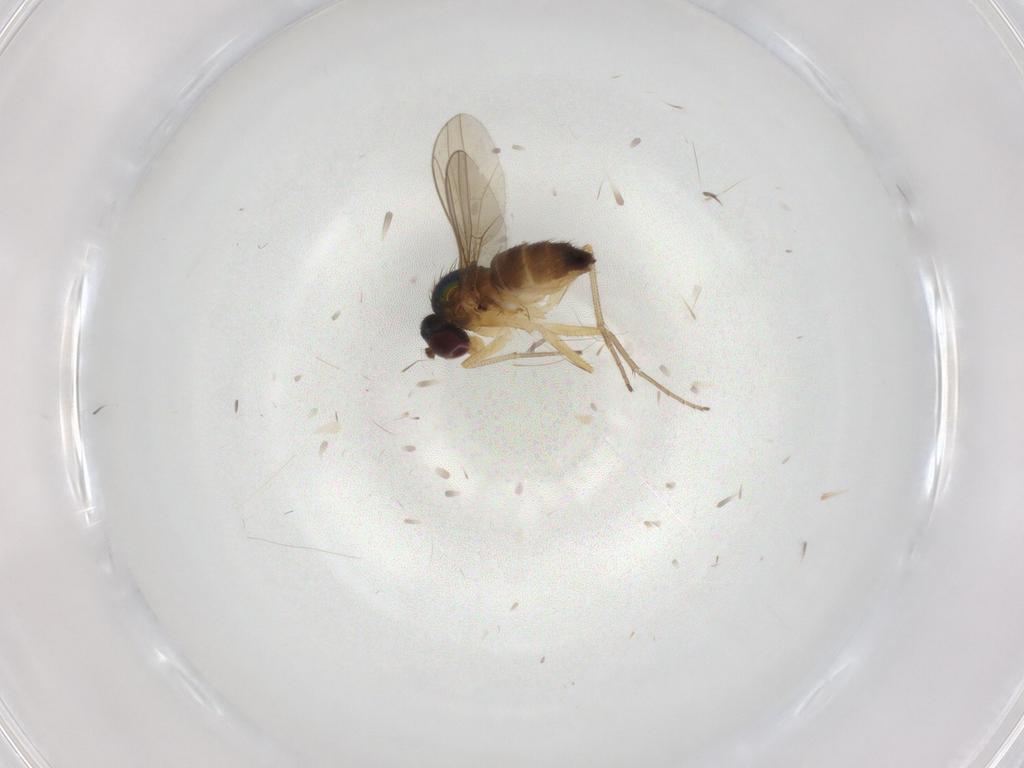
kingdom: Animalia
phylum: Arthropoda
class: Insecta
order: Diptera
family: Dolichopodidae
